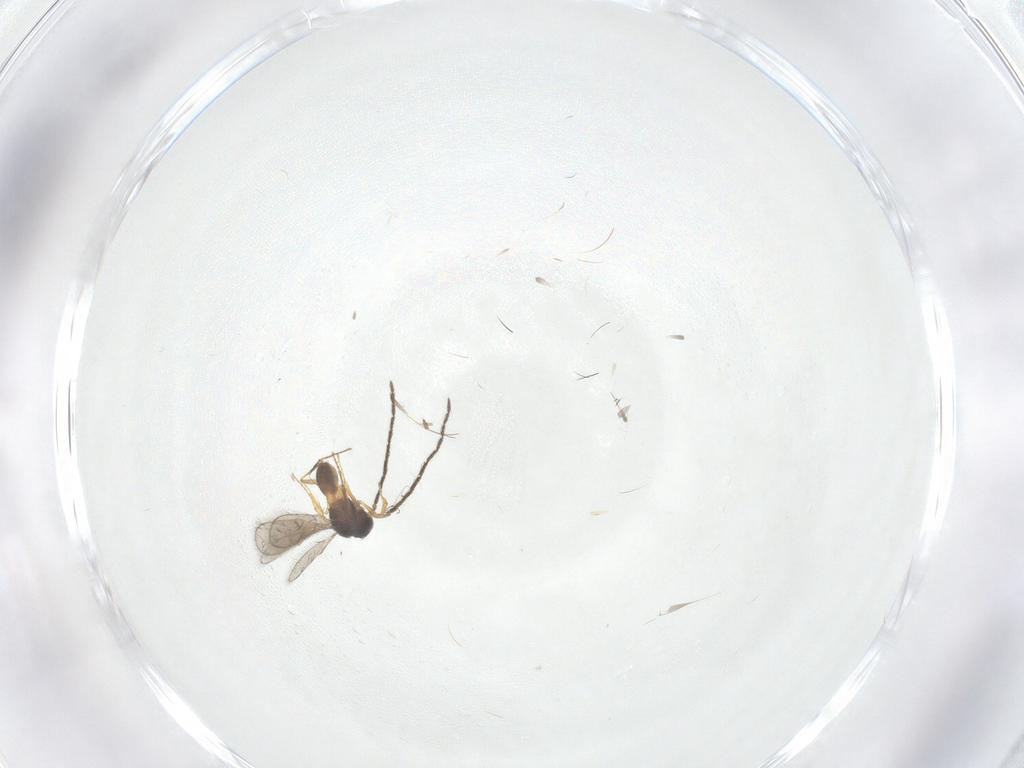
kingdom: Animalia
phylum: Arthropoda
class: Insecta
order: Hymenoptera
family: Scelionidae
